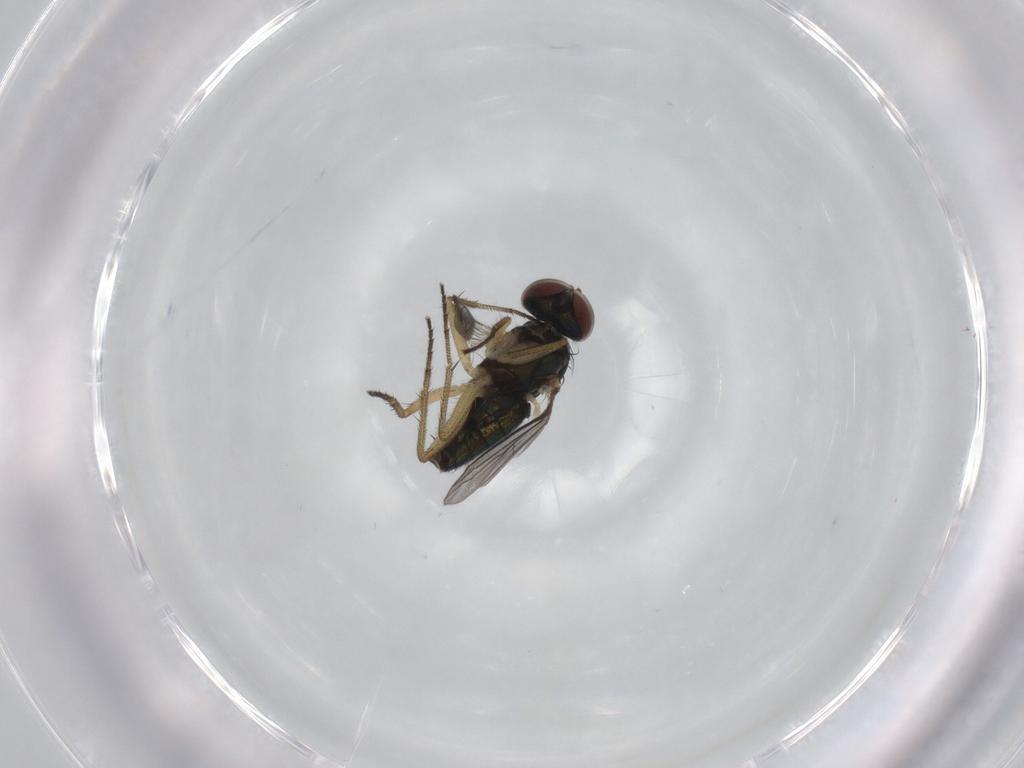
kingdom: Animalia
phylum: Arthropoda
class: Insecta
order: Diptera
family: Dolichopodidae
